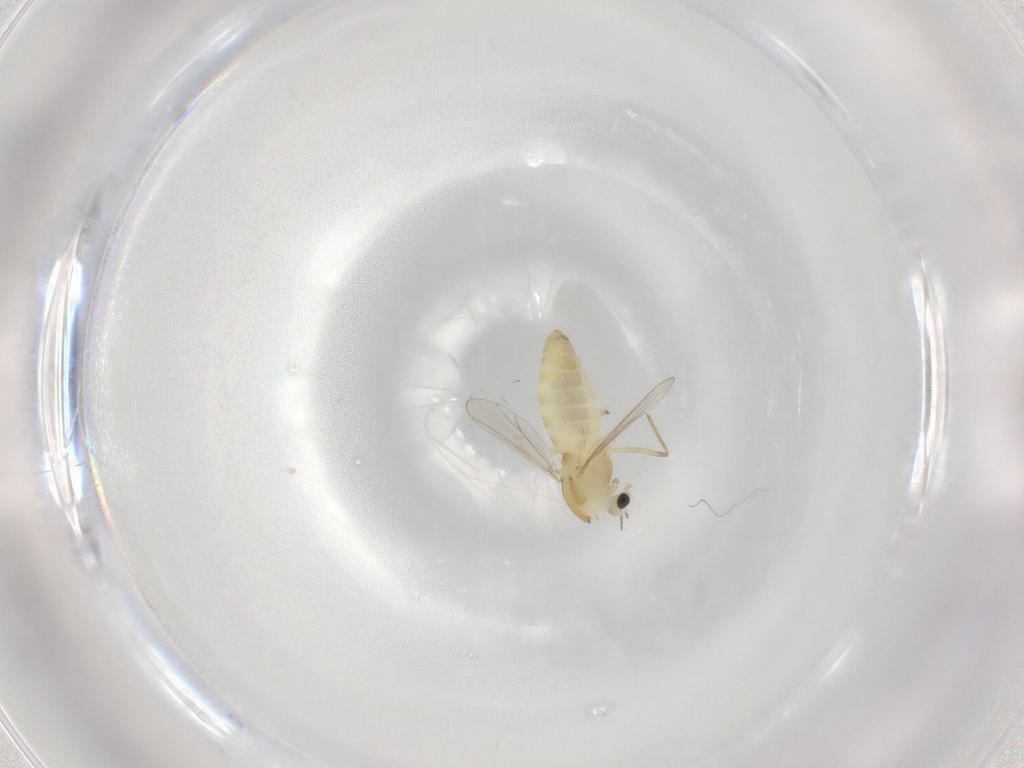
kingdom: Animalia
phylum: Arthropoda
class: Insecta
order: Diptera
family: Chironomidae
